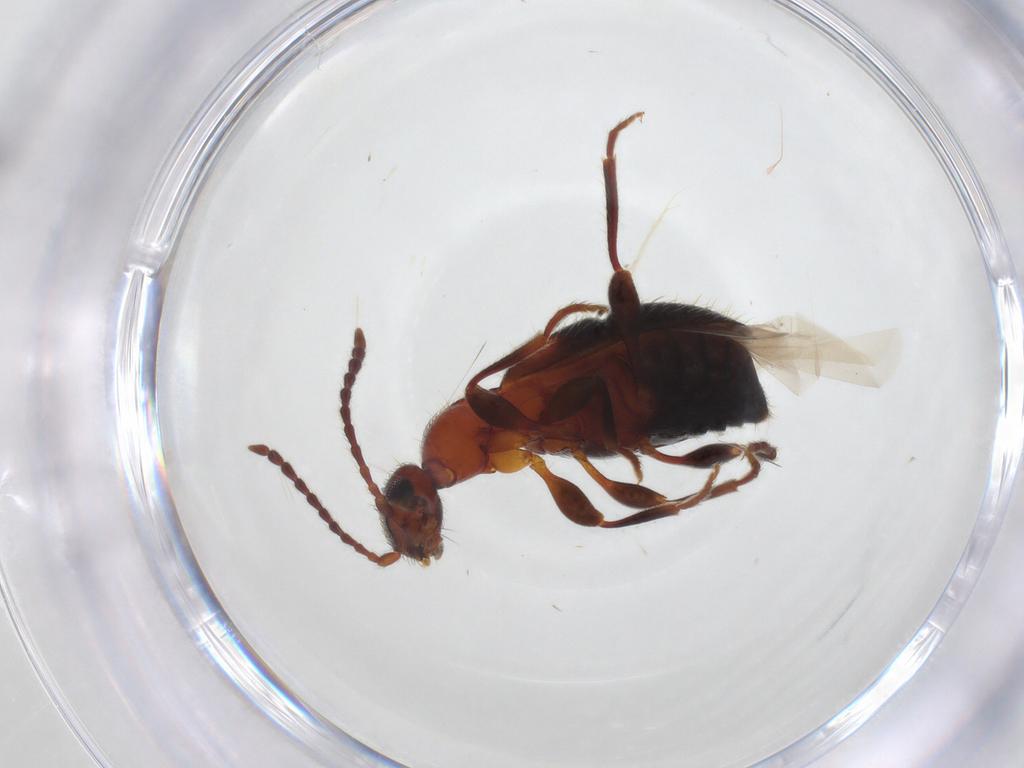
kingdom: Animalia
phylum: Arthropoda
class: Insecta
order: Coleoptera
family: Anthicidae
